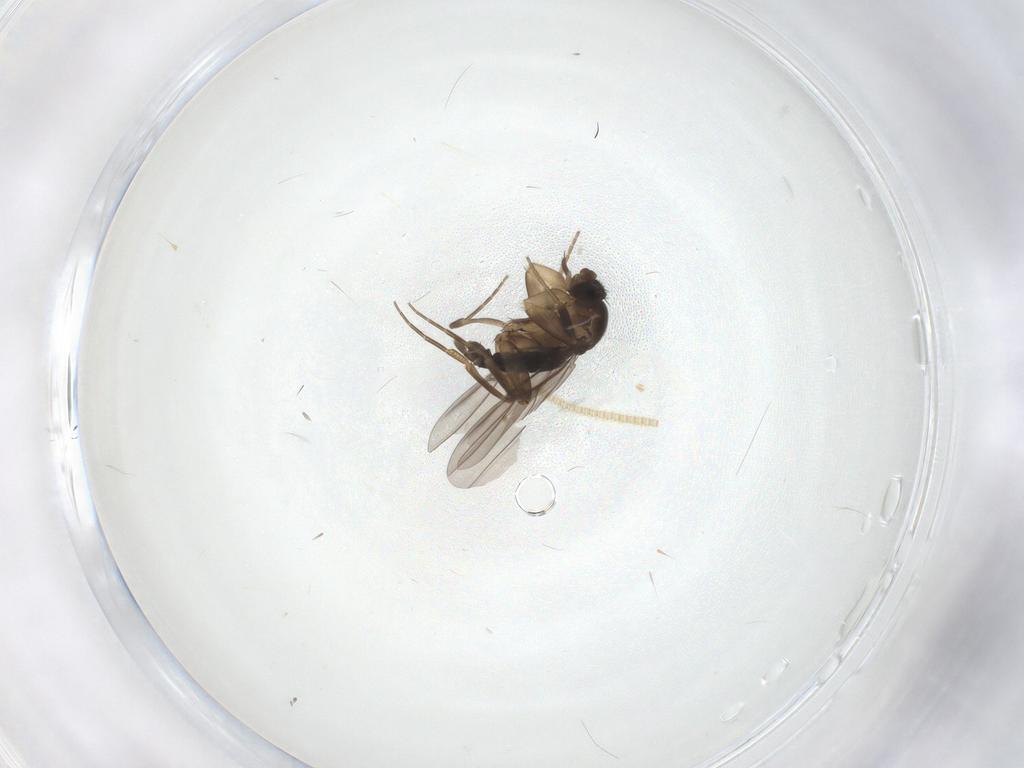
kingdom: Animalia
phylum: Arthropoda
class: Insecta
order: Diptera
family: Phoridae
